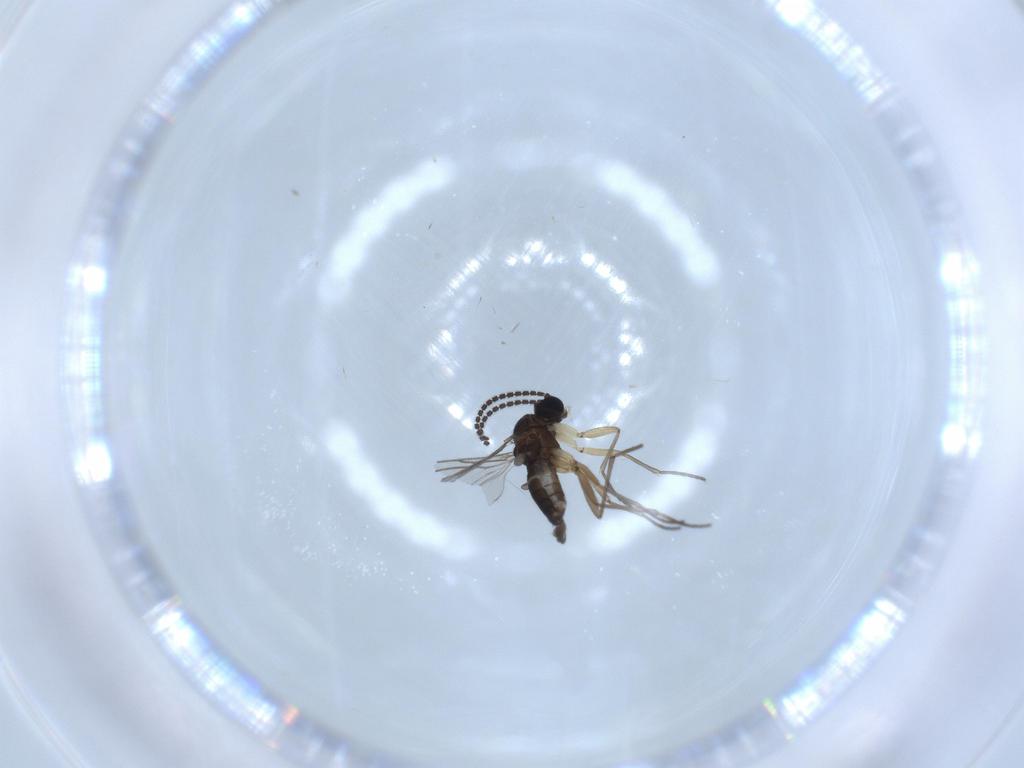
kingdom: Animalia
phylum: Arthropoda
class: Insecta
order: Diptera
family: Sciaridae
